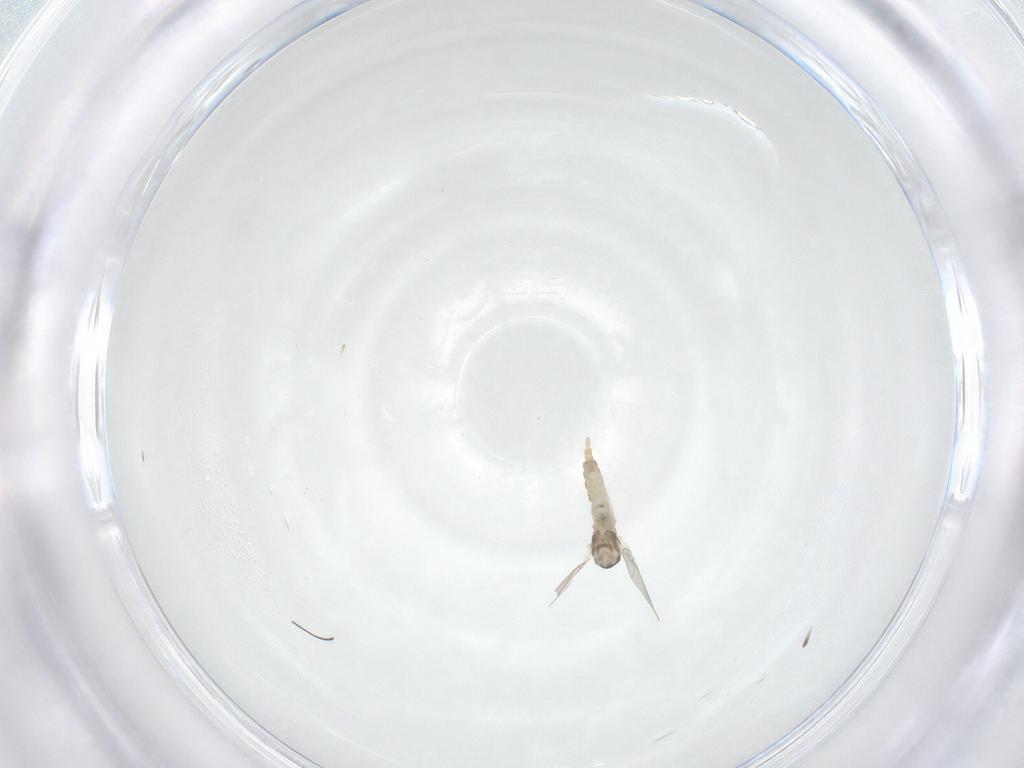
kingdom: Animalia
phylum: Arthropoda
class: Insecta
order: Diptera
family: Cecidomyiidae
